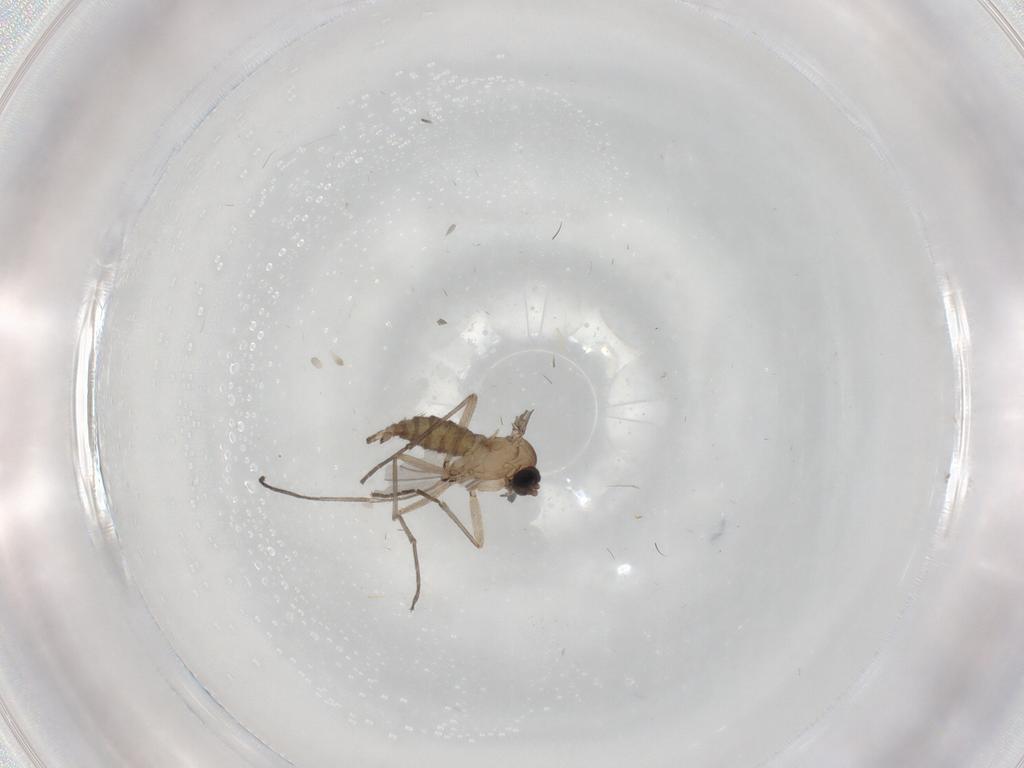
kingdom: Animalia
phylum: Arthropoda
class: Insecta
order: Diptera
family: Sciaridae
